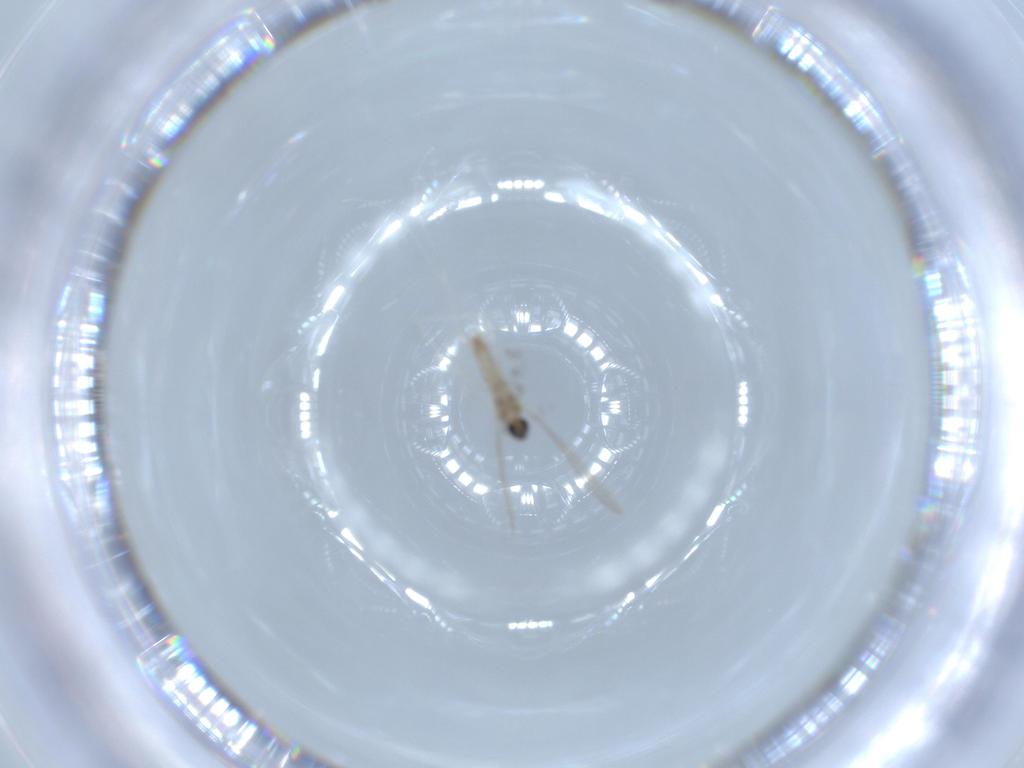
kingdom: Animalia
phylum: Arthropoda
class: Insecta
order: Diptera
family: Cecidomyiidae
